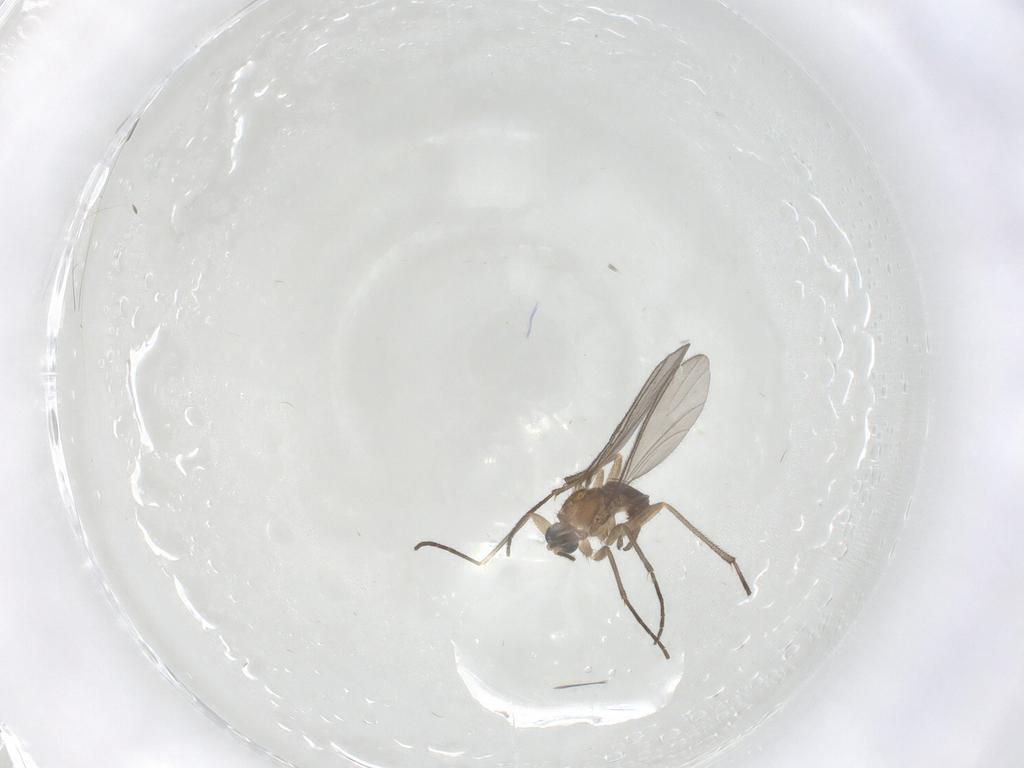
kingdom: Animalia
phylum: Arthropoda
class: Insecta
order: Diptera
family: Sciaridae
